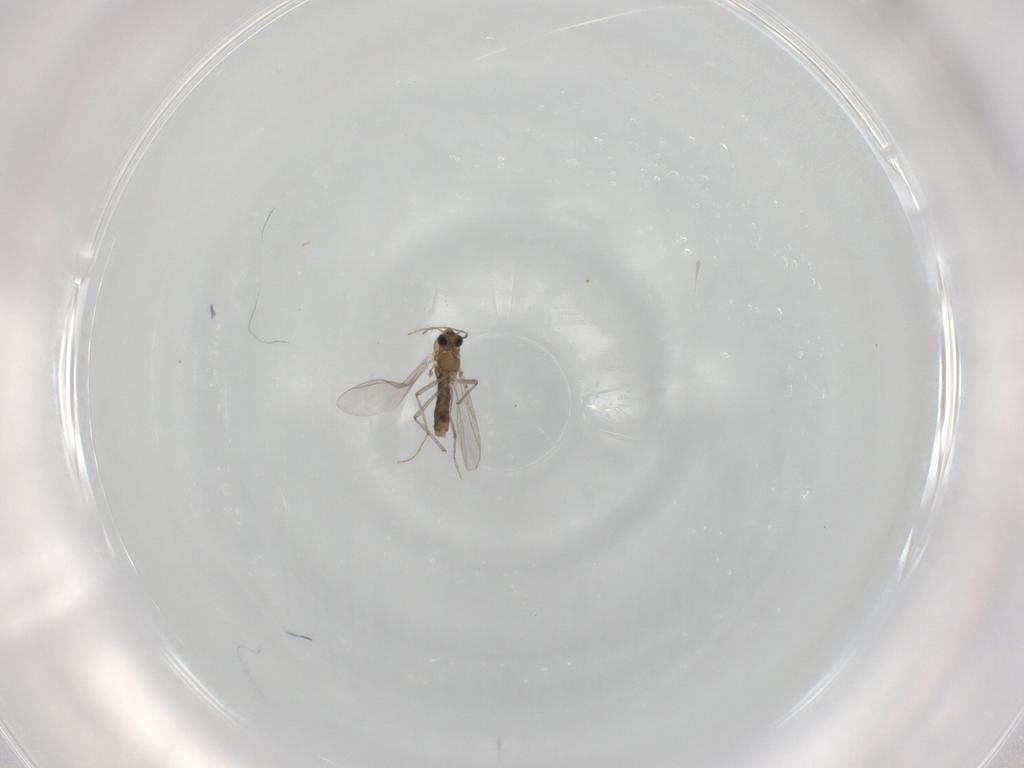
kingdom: Animalia
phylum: Arthropoda
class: Insecta
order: Diptera
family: Chironomidae
